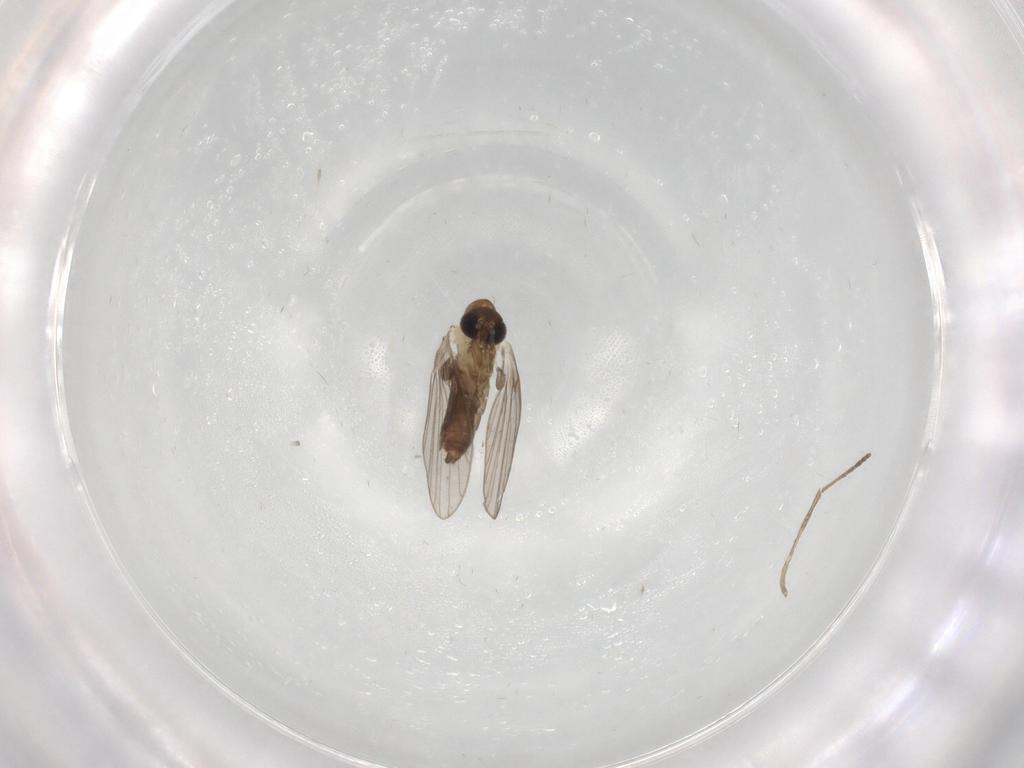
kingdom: Animalia
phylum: Arthropoda
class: Insecta
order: Diptera
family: Psychodidae
